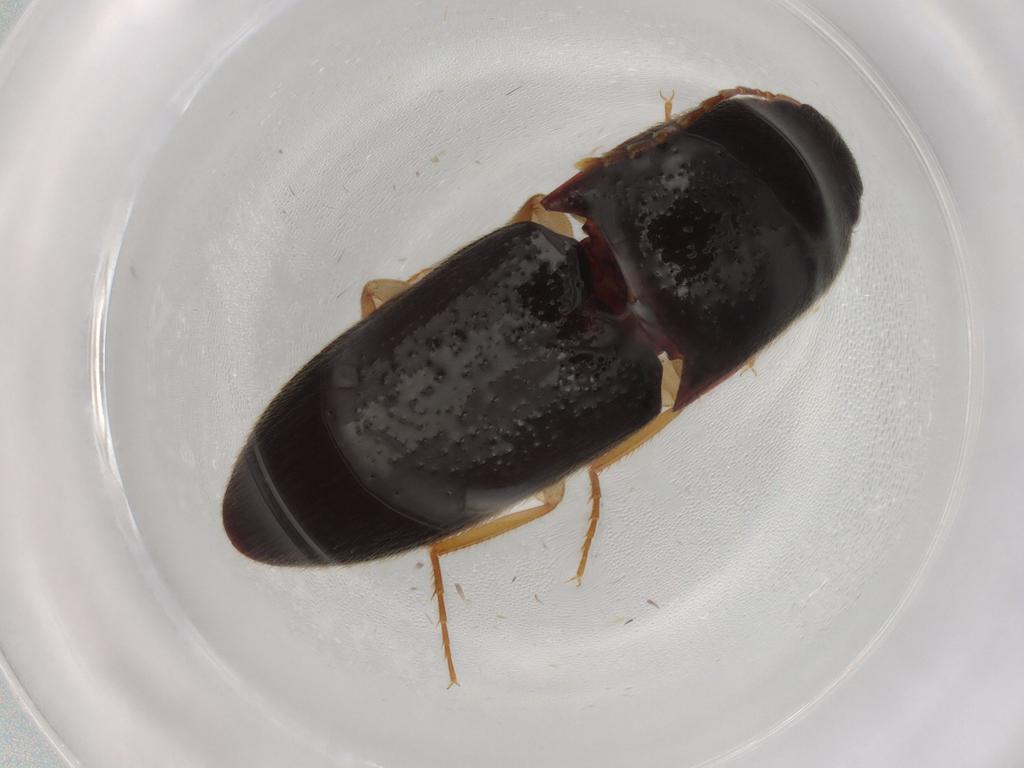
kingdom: Animalia
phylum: Arthropoda
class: Insecta
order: Coleoptera
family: Elateridae
